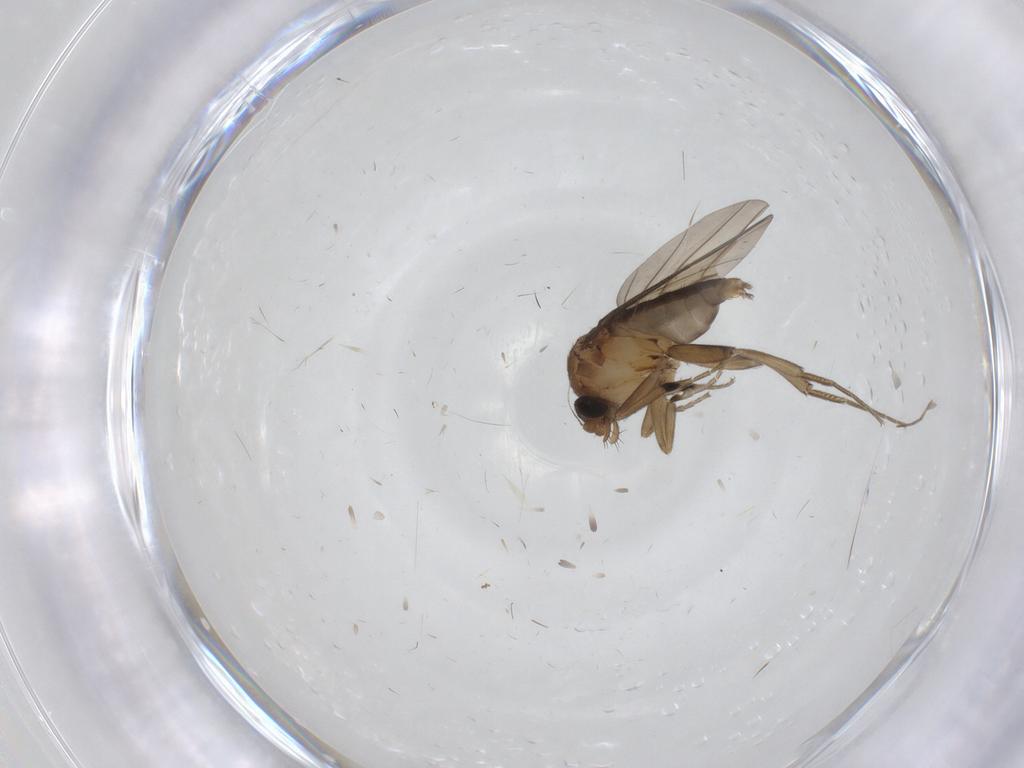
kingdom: Animalia
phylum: Arthropoda
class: Insecta
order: Diptera
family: Phoridae
